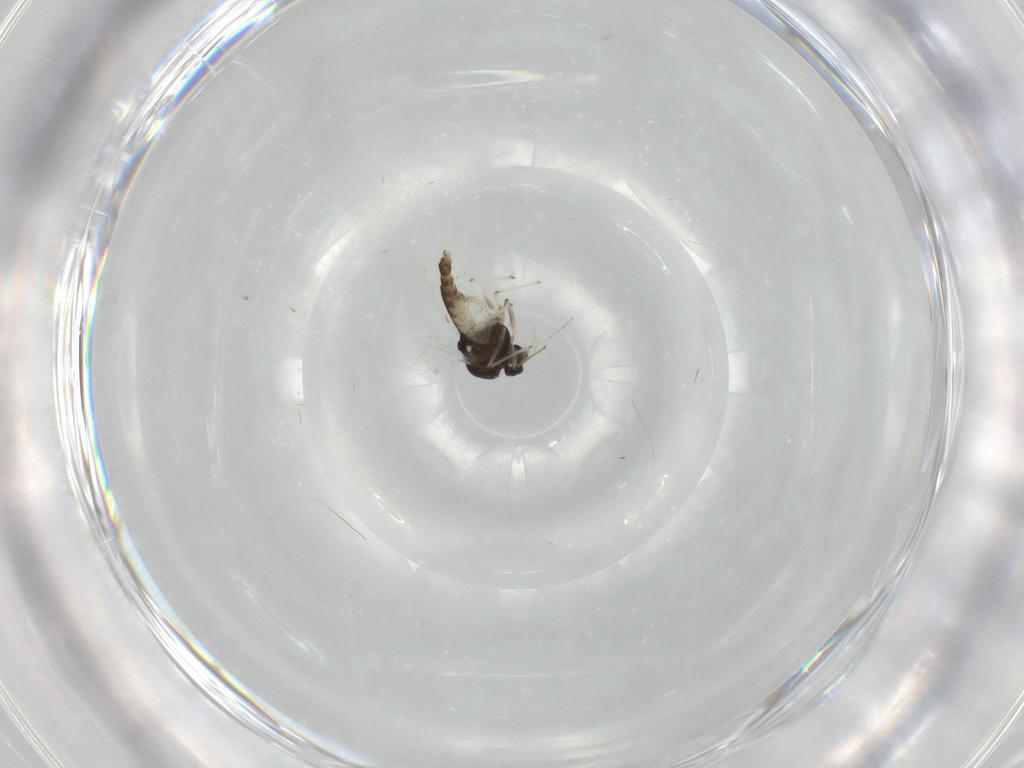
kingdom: Animalia
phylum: Arthropoda
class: Insecta
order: Diptera
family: Chironomidae
